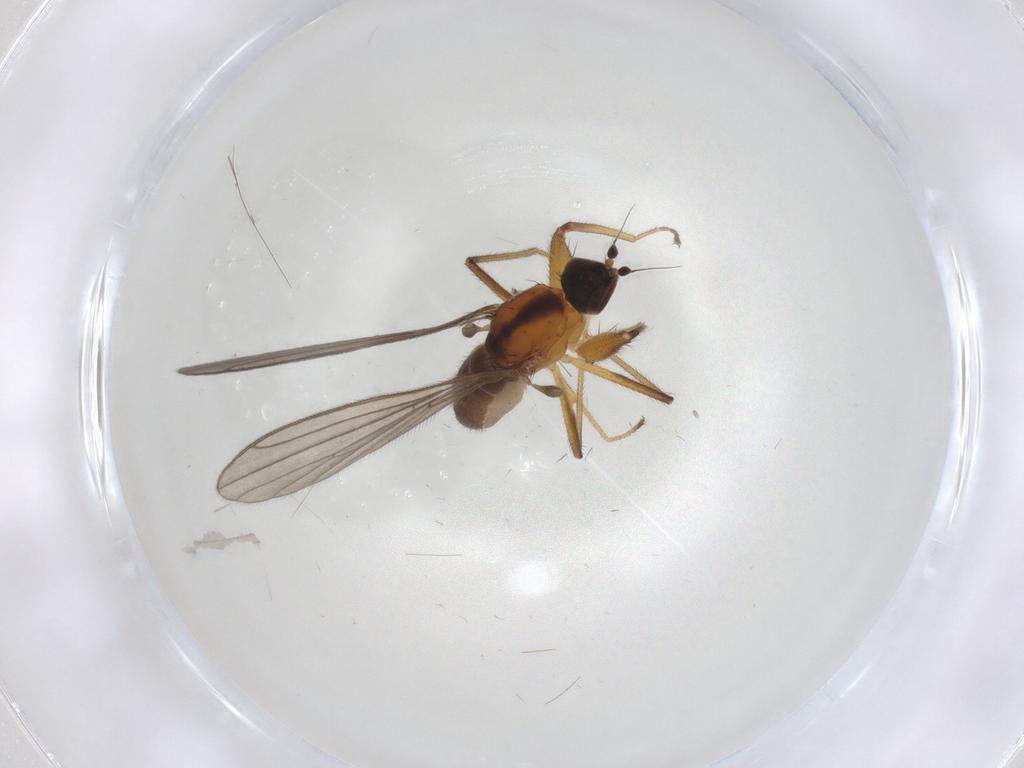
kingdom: Animalia
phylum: Arthropoda
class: Insecta
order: Diptera
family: Empididae
